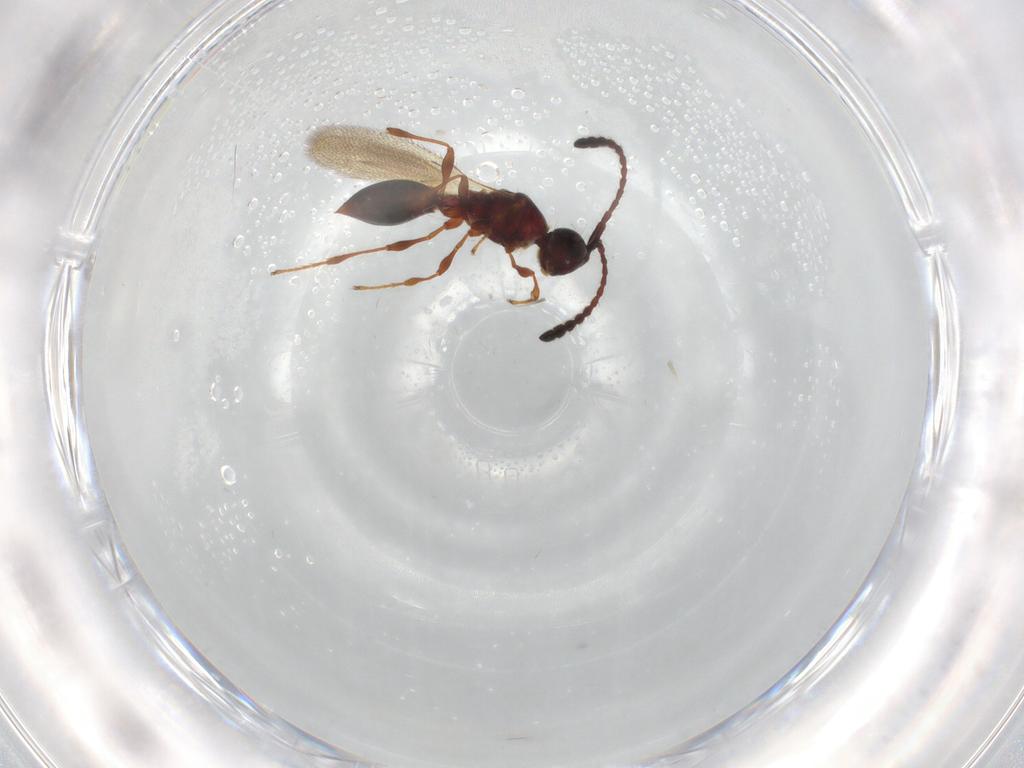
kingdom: Animalia
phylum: Arthropoda
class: Insecta
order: Hymenoptera
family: Diapriidae
